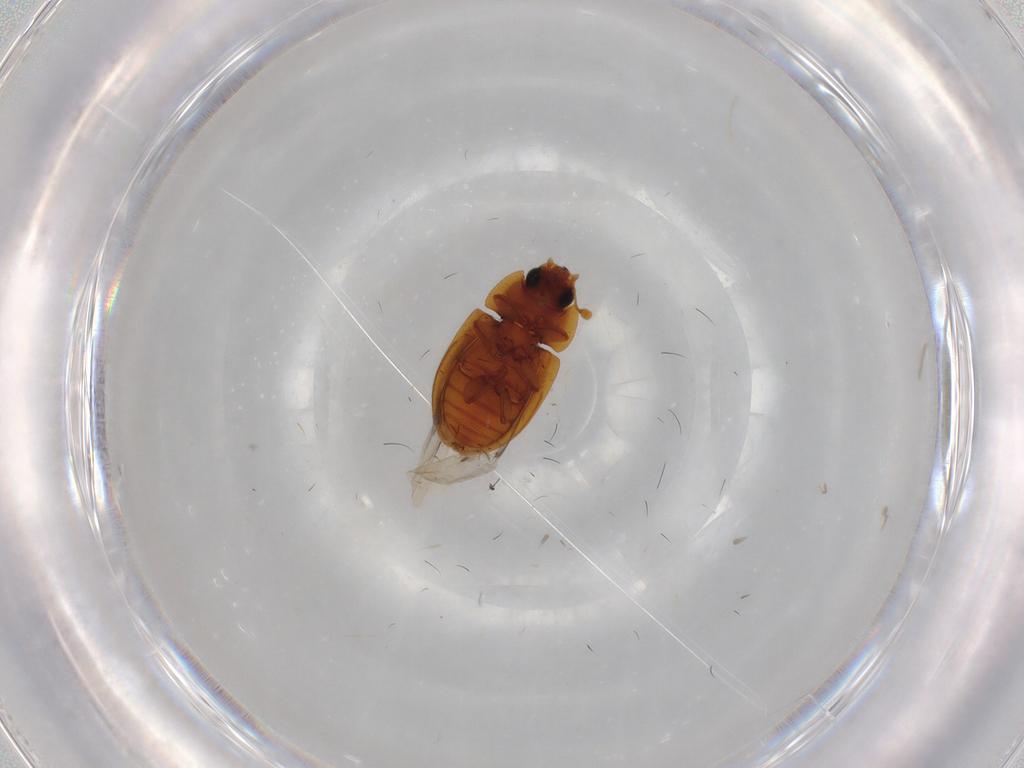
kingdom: Animalia
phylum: Arthropoda
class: Insecta
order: Coleoptera
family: Zopheridae
